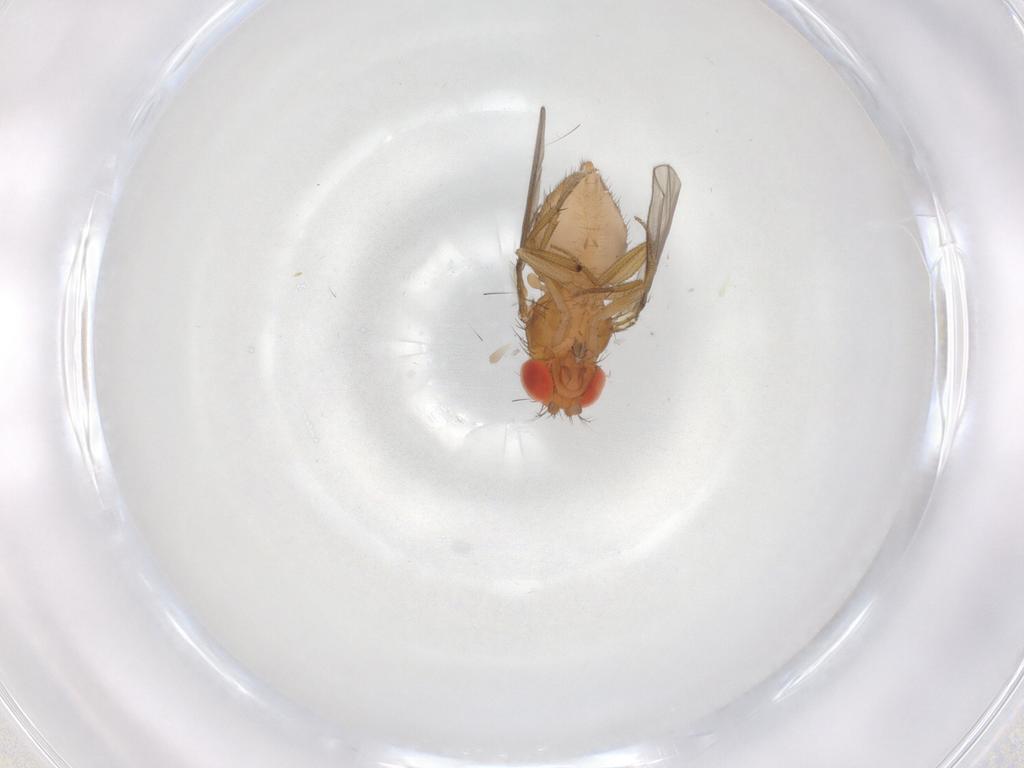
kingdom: Animalia
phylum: Arthropoda
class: Insecta
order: Diptera
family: Drosophilidae
